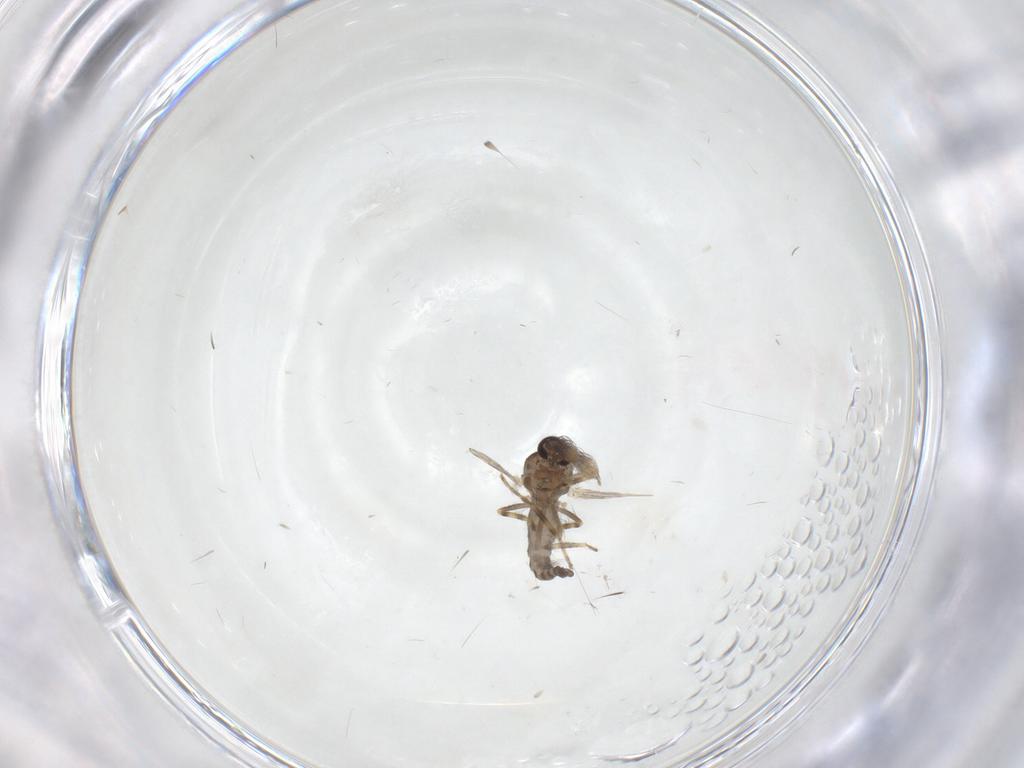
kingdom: Animalia
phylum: Arthropoda
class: Insecta
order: Diptera
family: Ceratopogonidae
